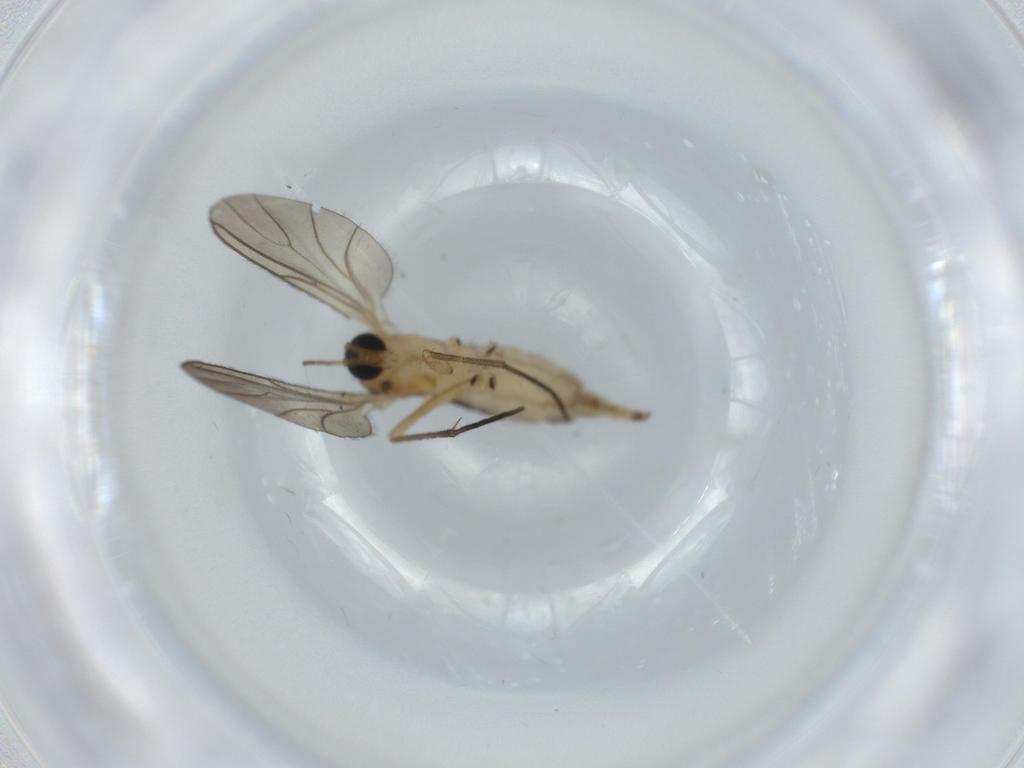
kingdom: Animalia
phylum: Arthropoda
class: Insecta
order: Diptera
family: Sciaridae
